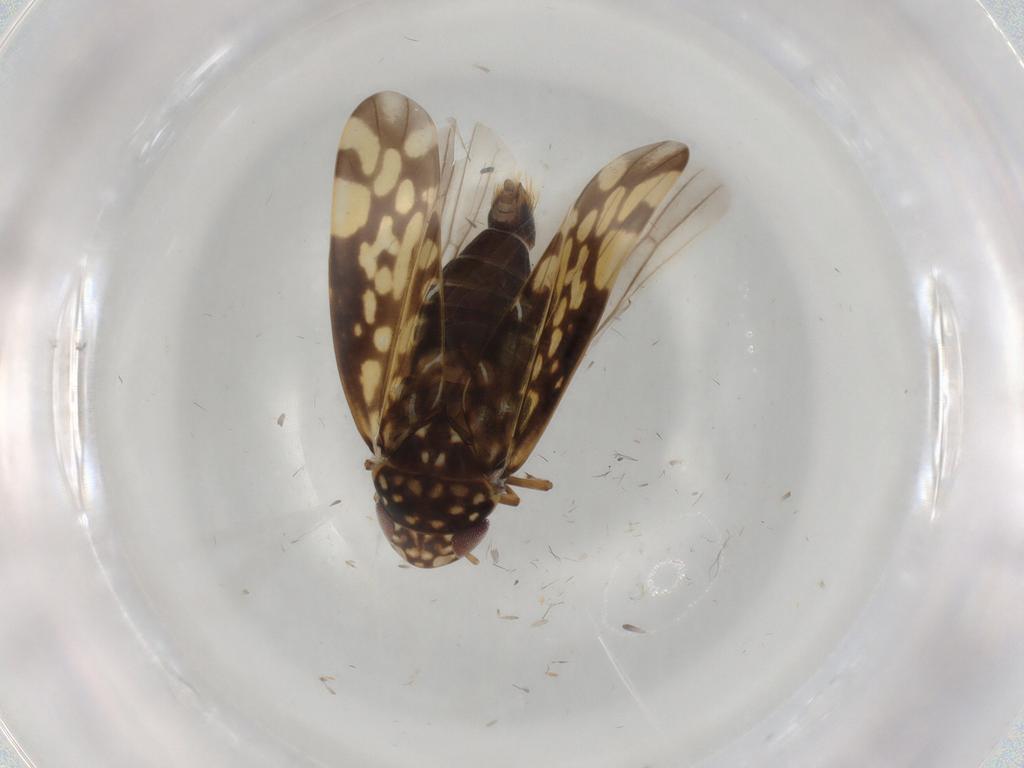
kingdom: Animalia
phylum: Arthropoda
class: Insecta
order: Hemiptera
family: Cicadellidae
